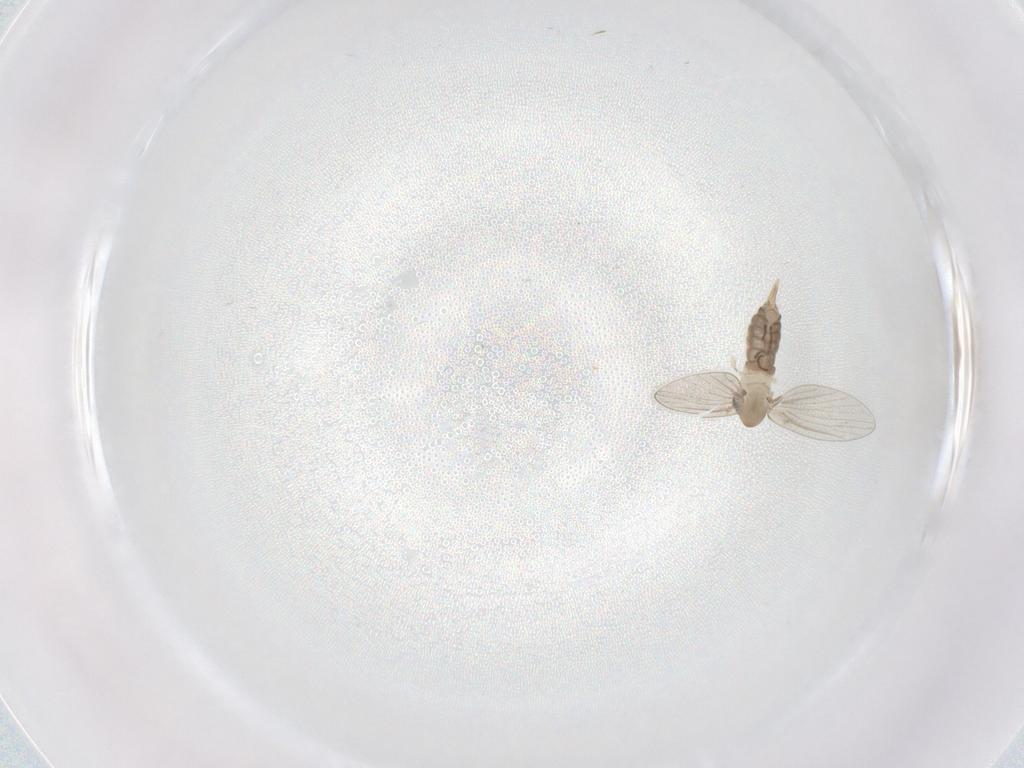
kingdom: Animalia
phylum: Arthropoda
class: Insecta
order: Diptera
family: Psychodidae
